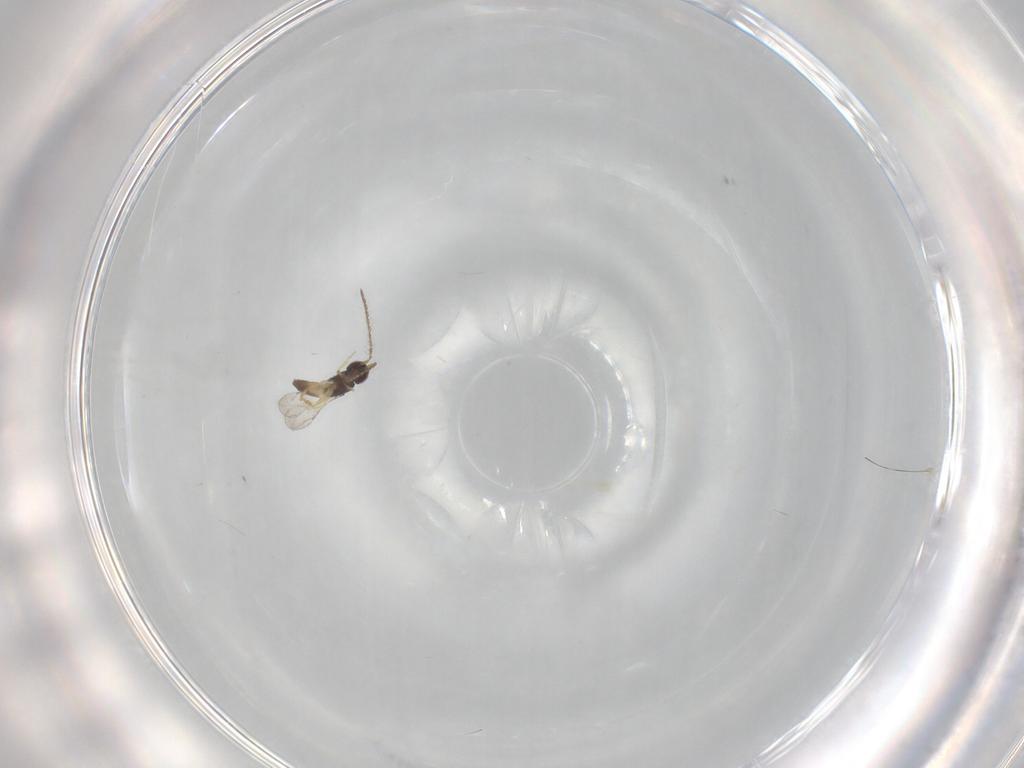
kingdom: Animalia
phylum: Arthropoda
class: Insecta
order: Hymenoptera
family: Ceraphronidae
